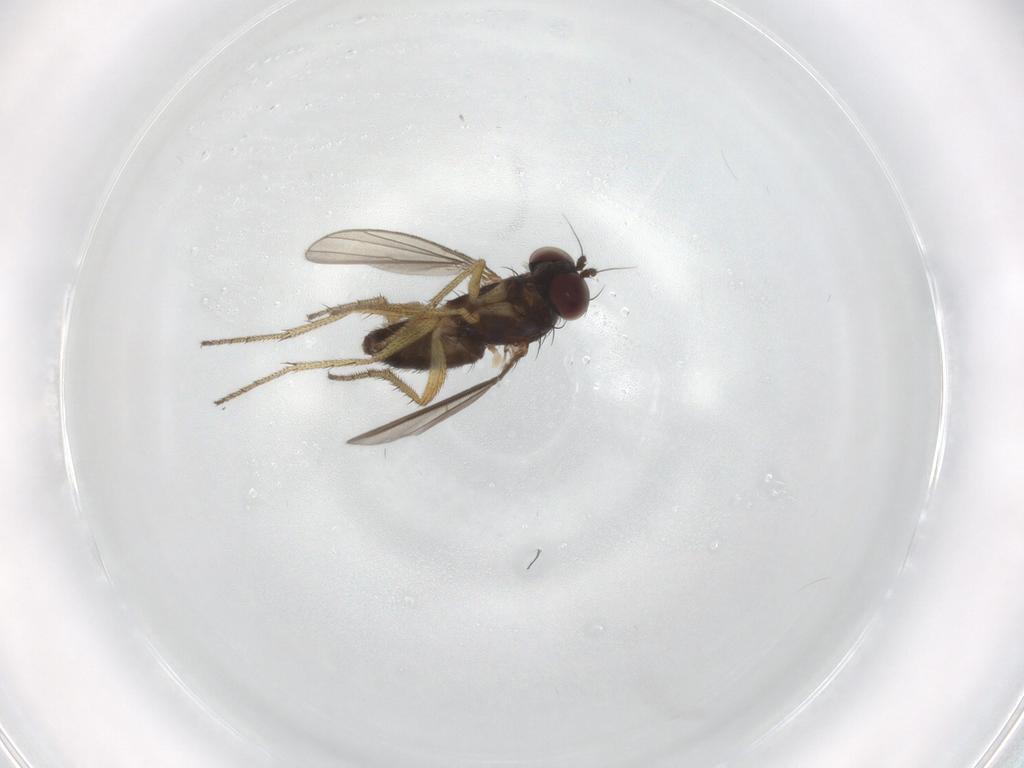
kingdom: Animalia
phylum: Arthropoda
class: Insecta
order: Diptera
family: Dolichopodidae
